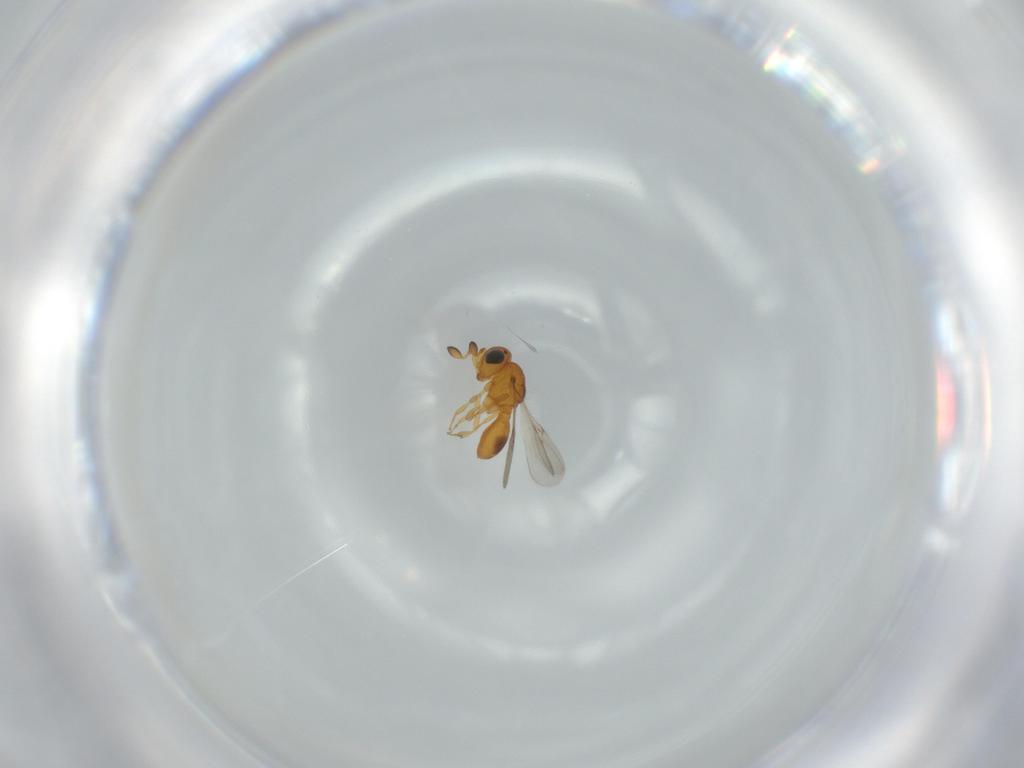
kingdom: Animalia
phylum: Arthropoda
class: Insecta
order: Hymenoptera
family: Scelionidae
